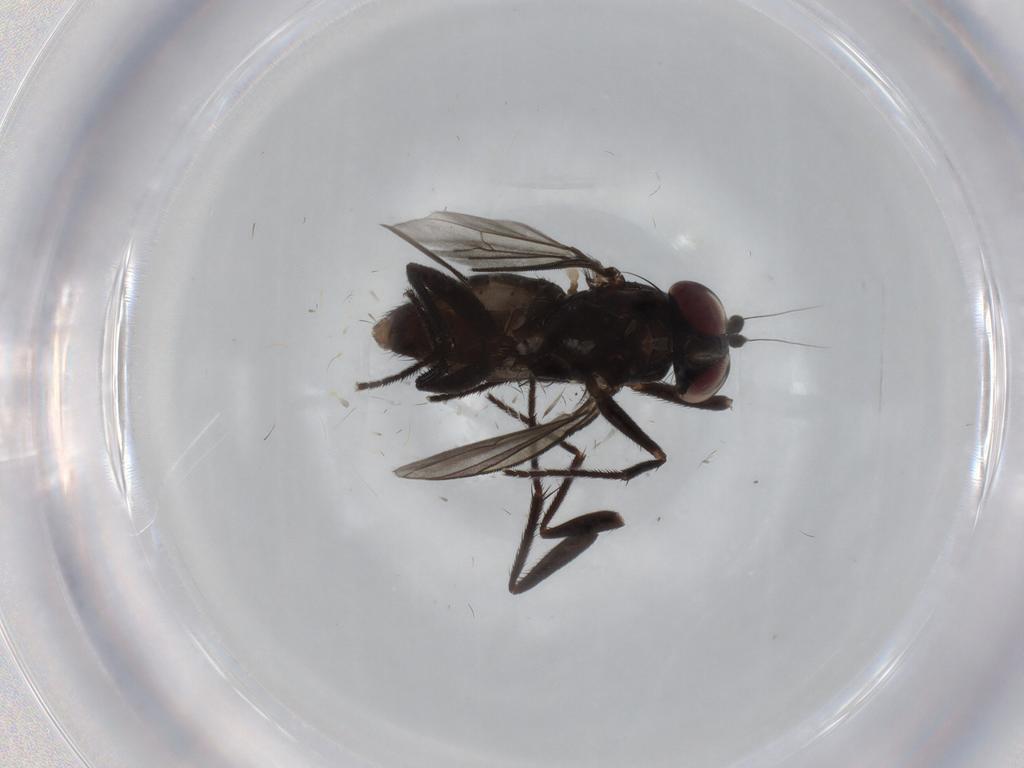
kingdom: Animalia
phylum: Arthropoda
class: Insecta
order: Diptera
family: Dolichopodidae
